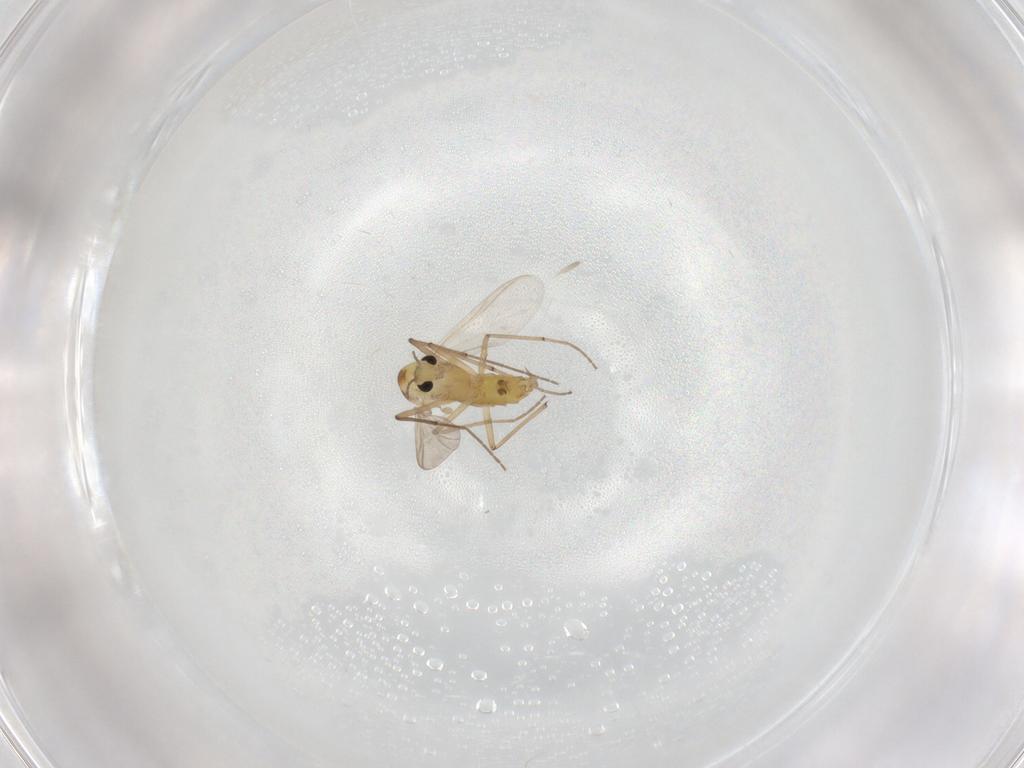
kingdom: Animalia
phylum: Arthropoda
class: Insecta
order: Diptera
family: Chironomidae
